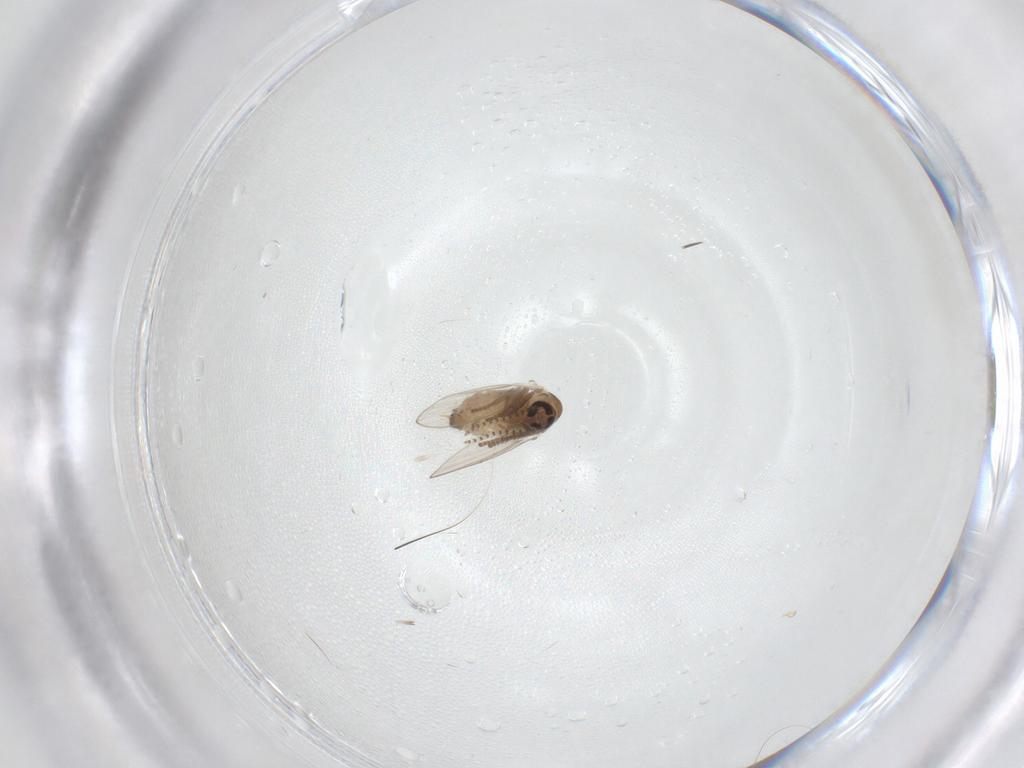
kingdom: Animalia
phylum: Arthropoda
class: Insecta
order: Diptera
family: Psychodidae
